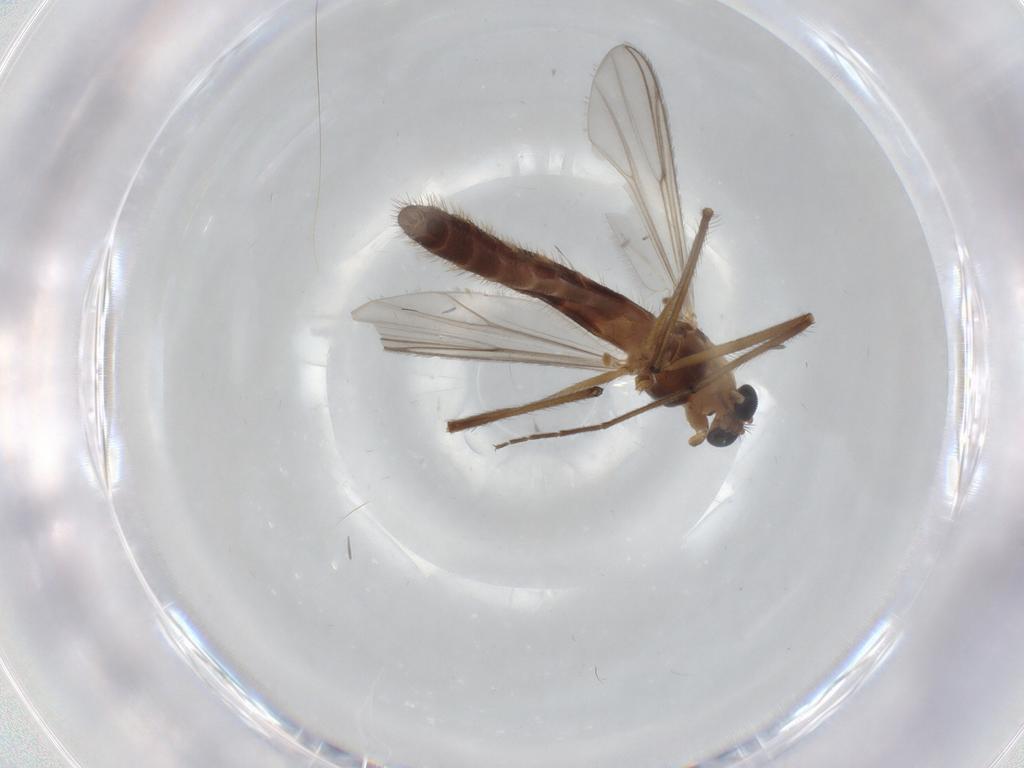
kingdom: Animalia
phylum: Arthropoda
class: Insecta
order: Diptera
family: Chironomidae
